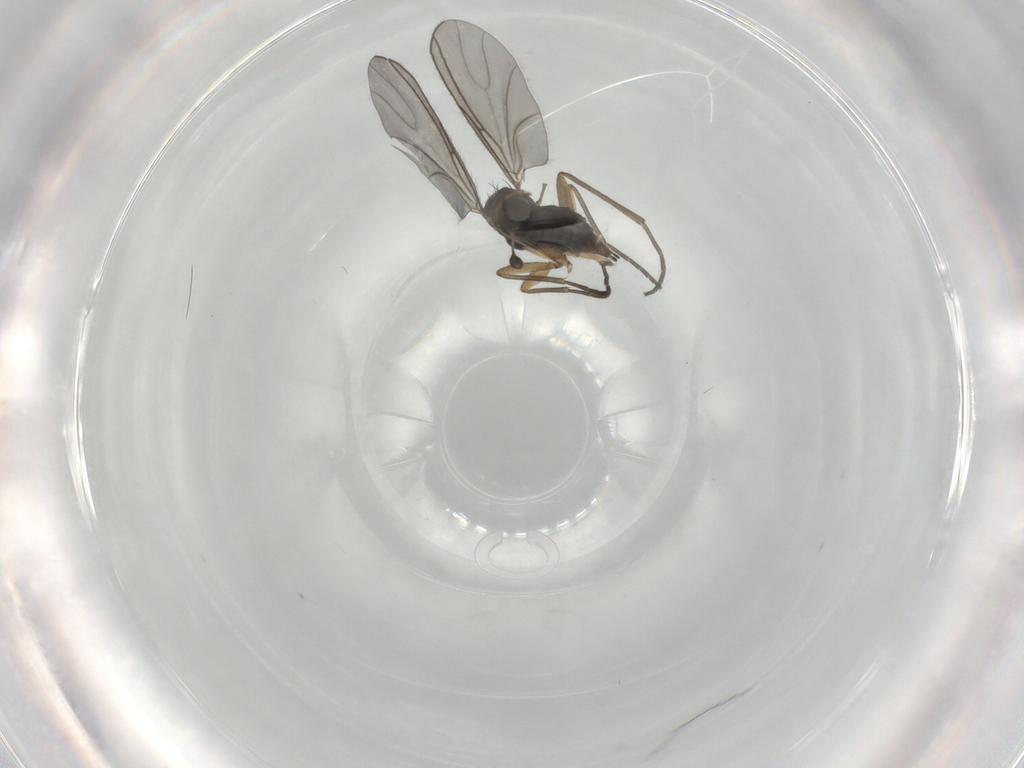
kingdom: Animalia
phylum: Arthropoda
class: Insecta
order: Diptera
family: Sciaridae
